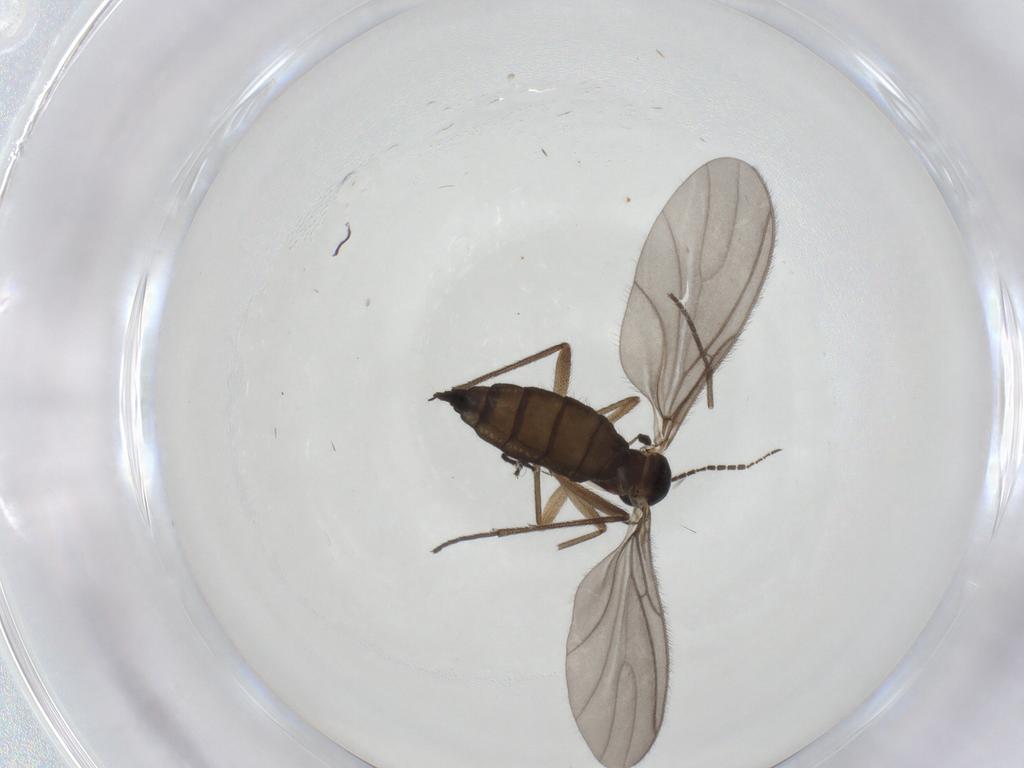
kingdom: Animalia
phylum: Arthropoda
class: Insecta
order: Diptera
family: Sciaridae
